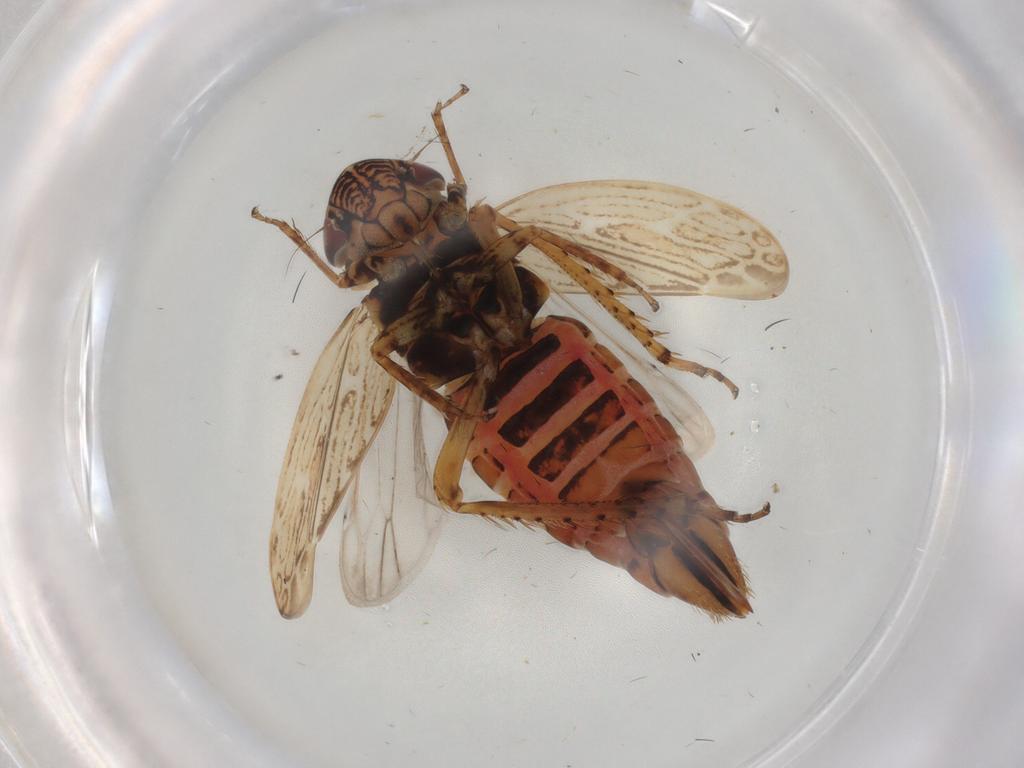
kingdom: Animalia
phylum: Arthropoda
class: Insecta
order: Hemiptera
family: Cicadellidae
